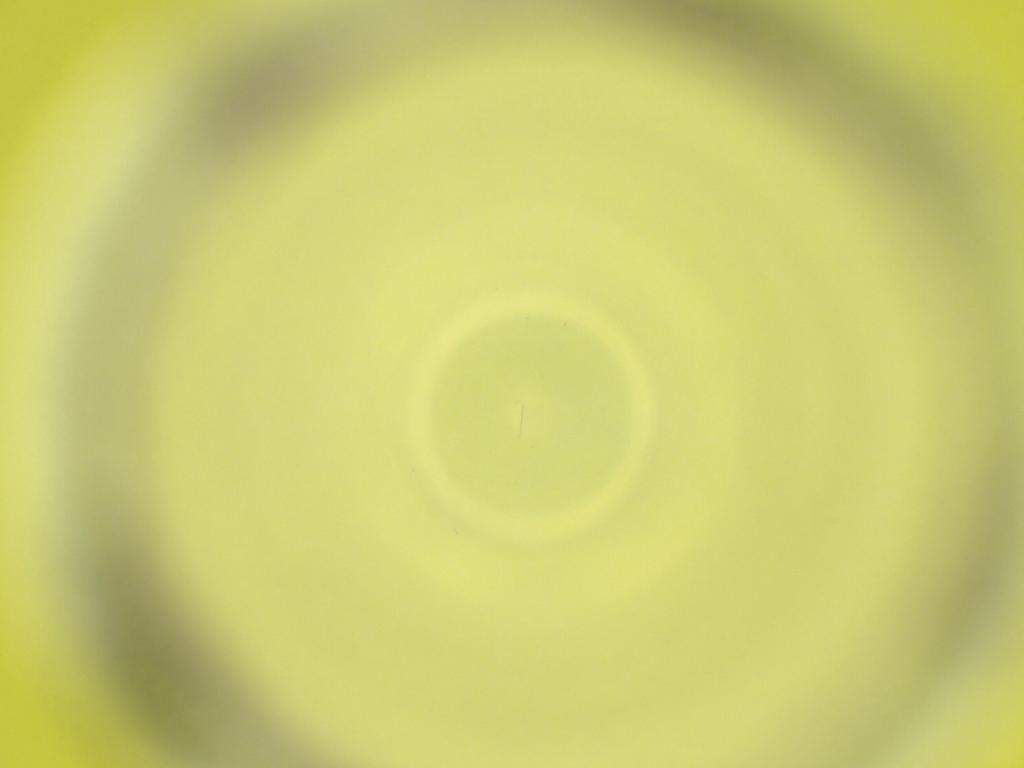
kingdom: Animalia
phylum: Arthropoda
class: Insecta
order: Diptera
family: Cecidomyiidae
